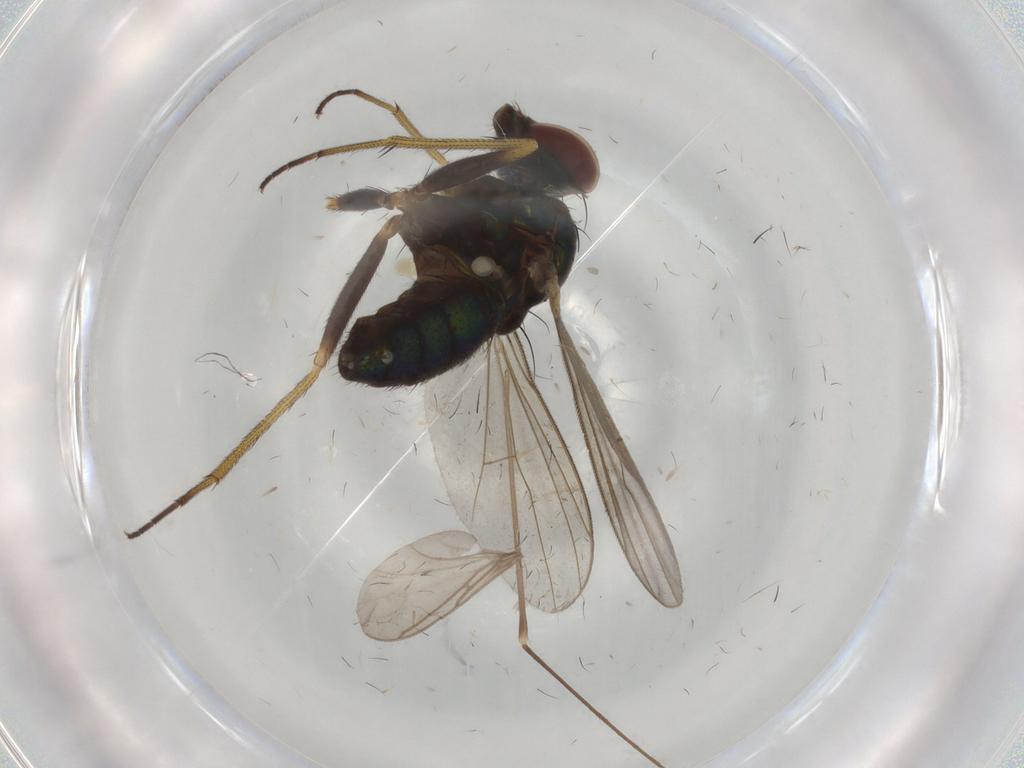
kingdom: Animalia
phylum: Arthropoda
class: Insecta
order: Diptera
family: Dolichopodidae
